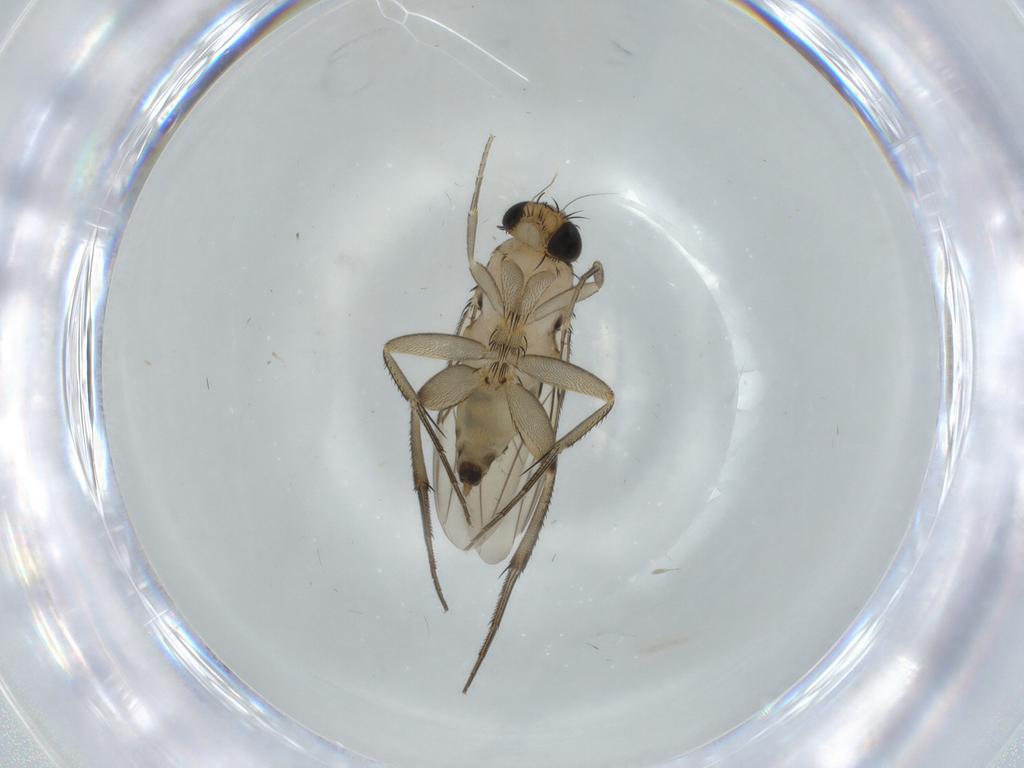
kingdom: Animalia
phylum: Arthropoda
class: Insecta
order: Diptera
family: Phoridae
